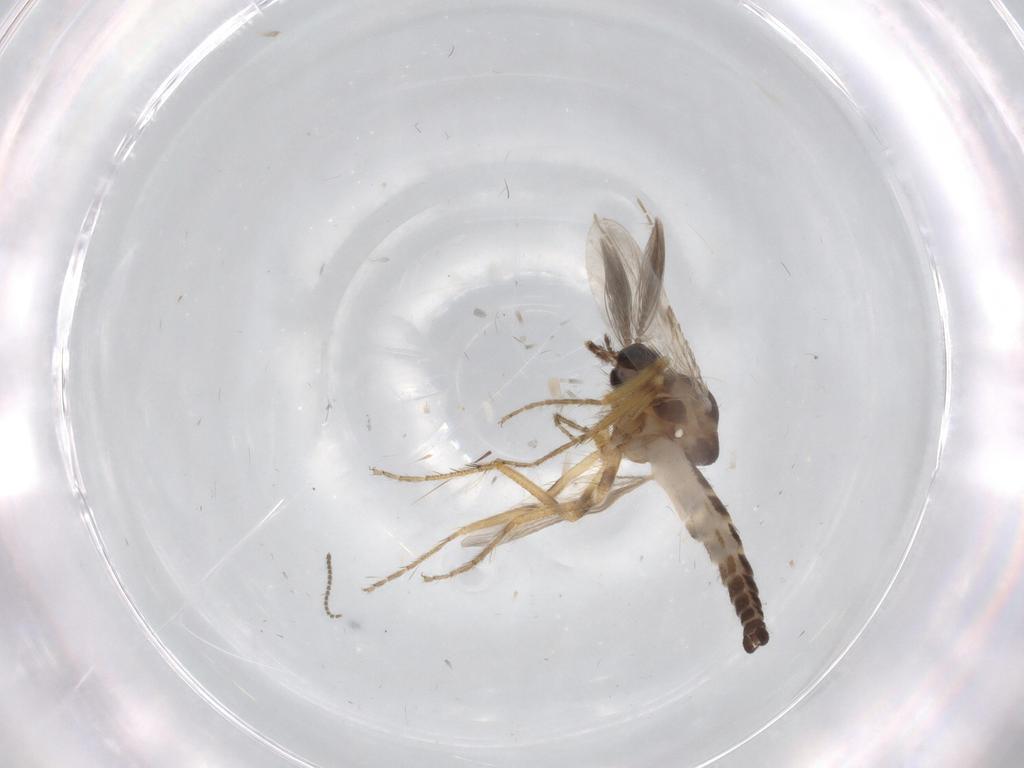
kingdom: Animalia
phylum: Arthropoda
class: Insecta
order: Diptera
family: Ceratopogonidae
